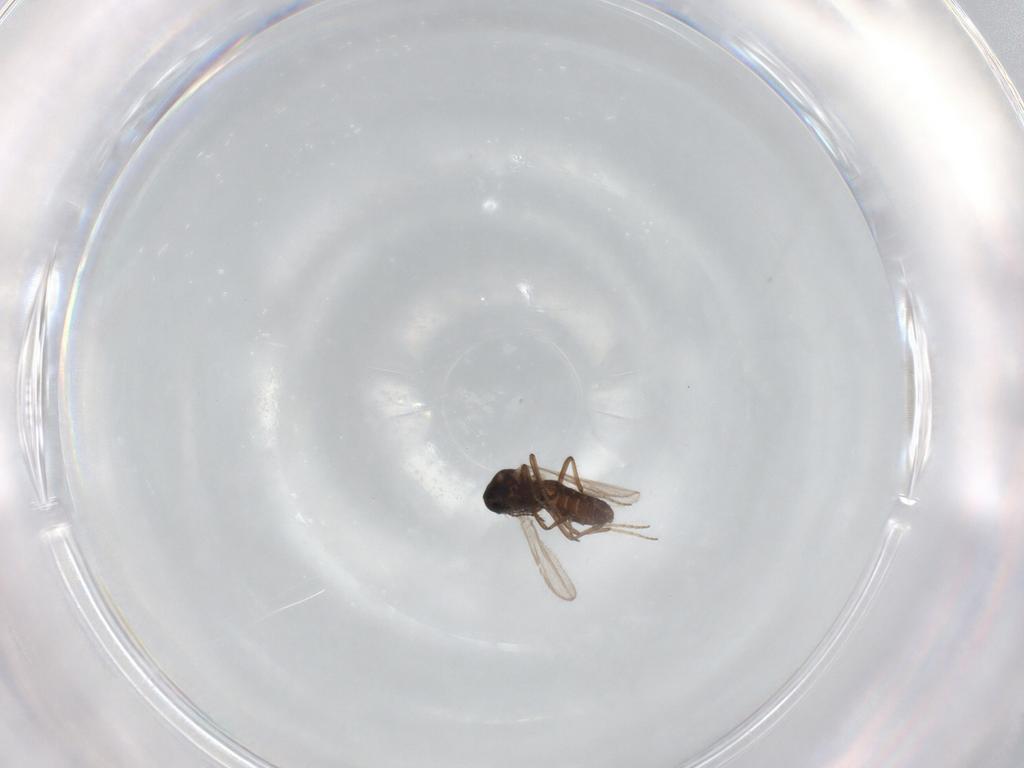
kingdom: Animalia
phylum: Arthropoda
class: Insecta
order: Diptera
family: Ceratopogonidae
